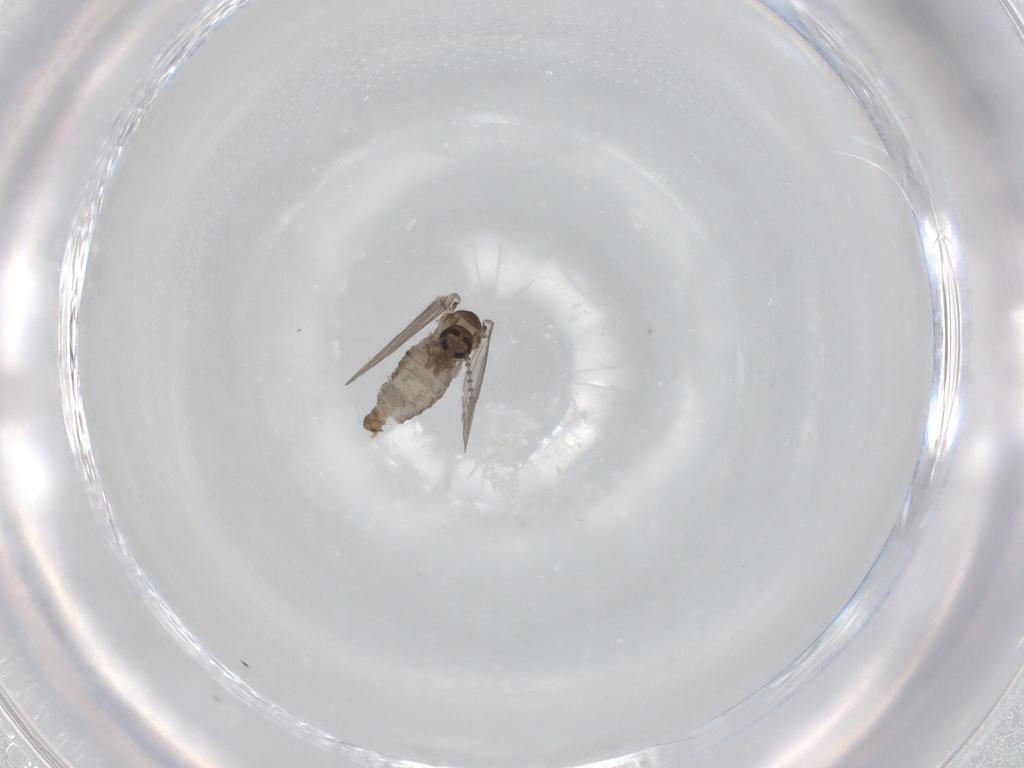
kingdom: Animalia
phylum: Arthropoda
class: Insecta
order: Diptera
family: Psychodidae
